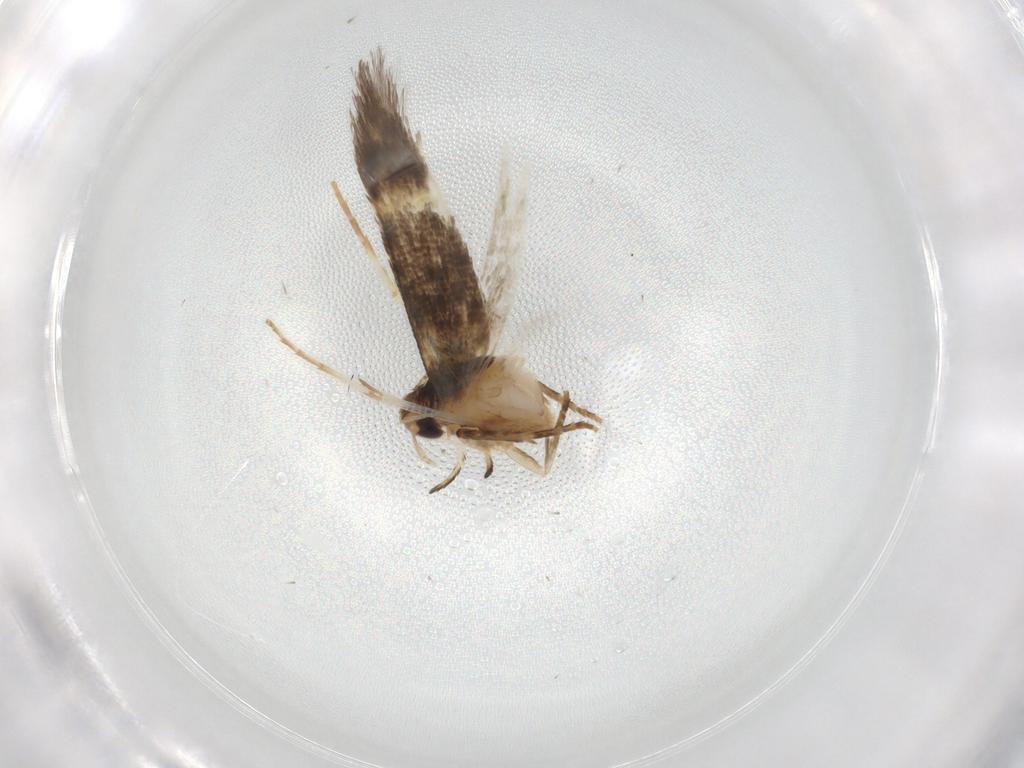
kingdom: Animalia
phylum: Arthropoda
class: Insecta
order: Lepidoptera
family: Cosmopterigidae
